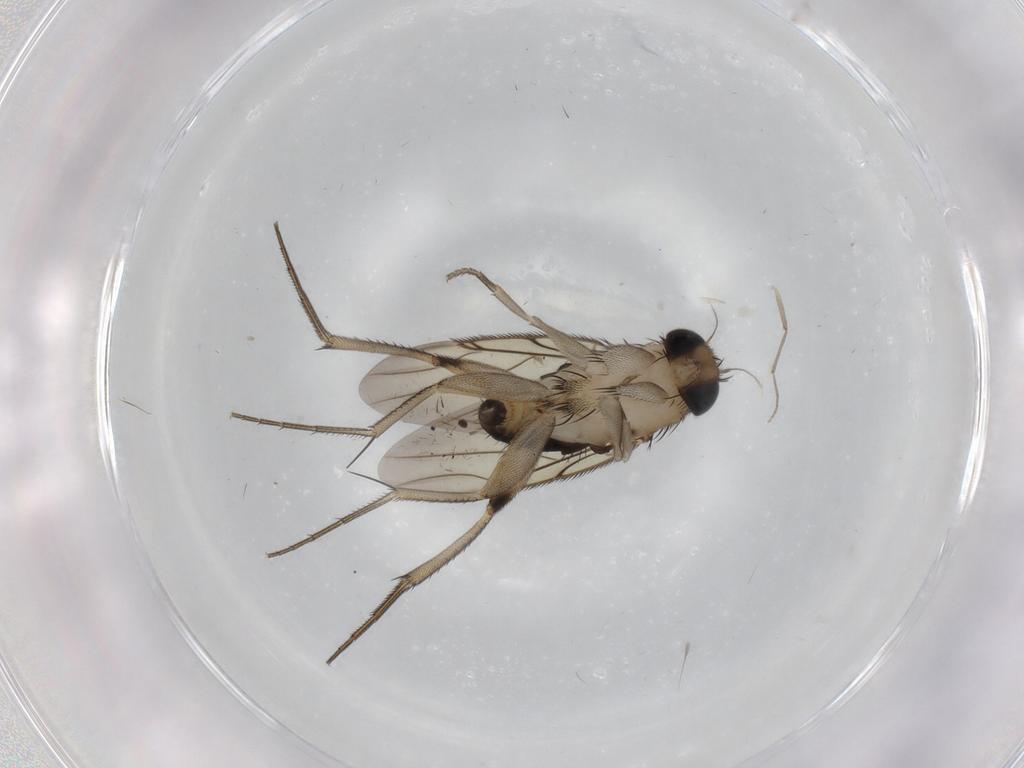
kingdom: Animalia
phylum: Arthropoda
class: Insecta
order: Diptera
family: Phoridae
